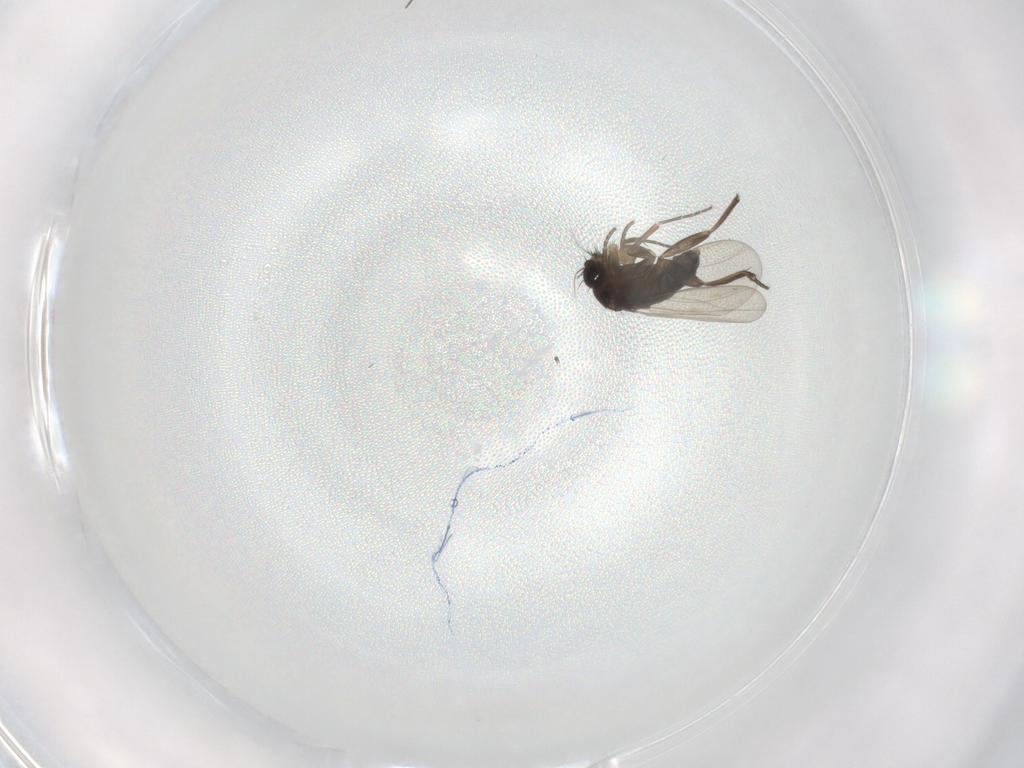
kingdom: Animalia
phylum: Arthropoda
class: Insecta
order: Diptera
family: Phoridae
